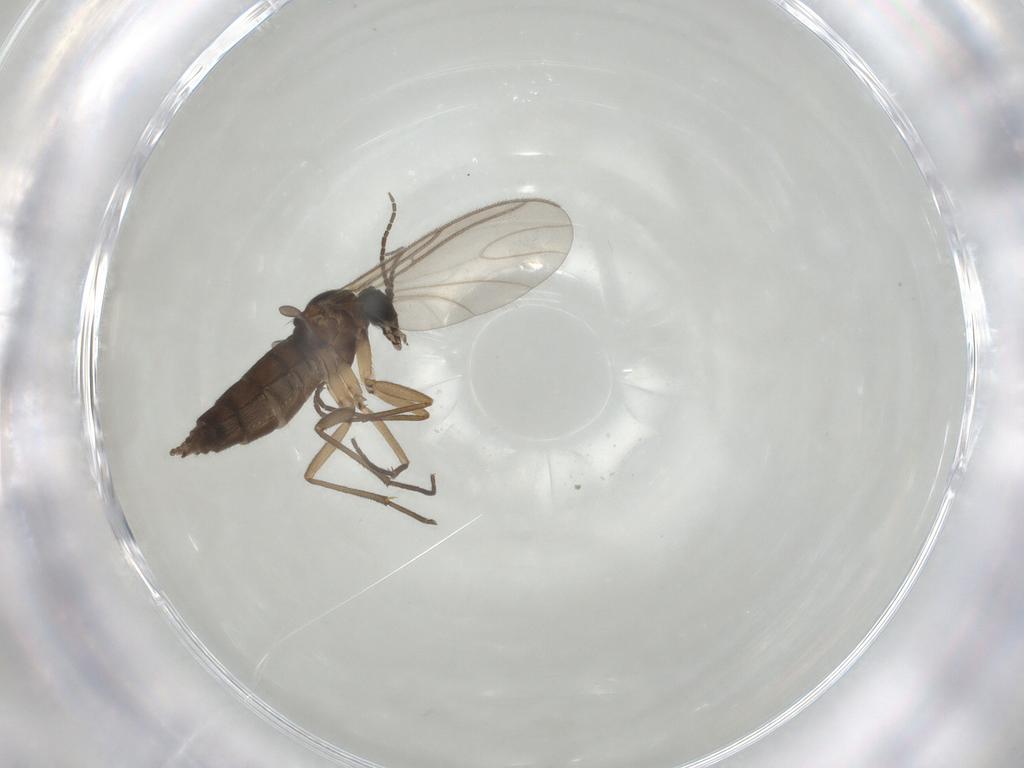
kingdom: Animalia
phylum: Arthropoda
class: Insecta
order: Diptera
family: Sciaridae
